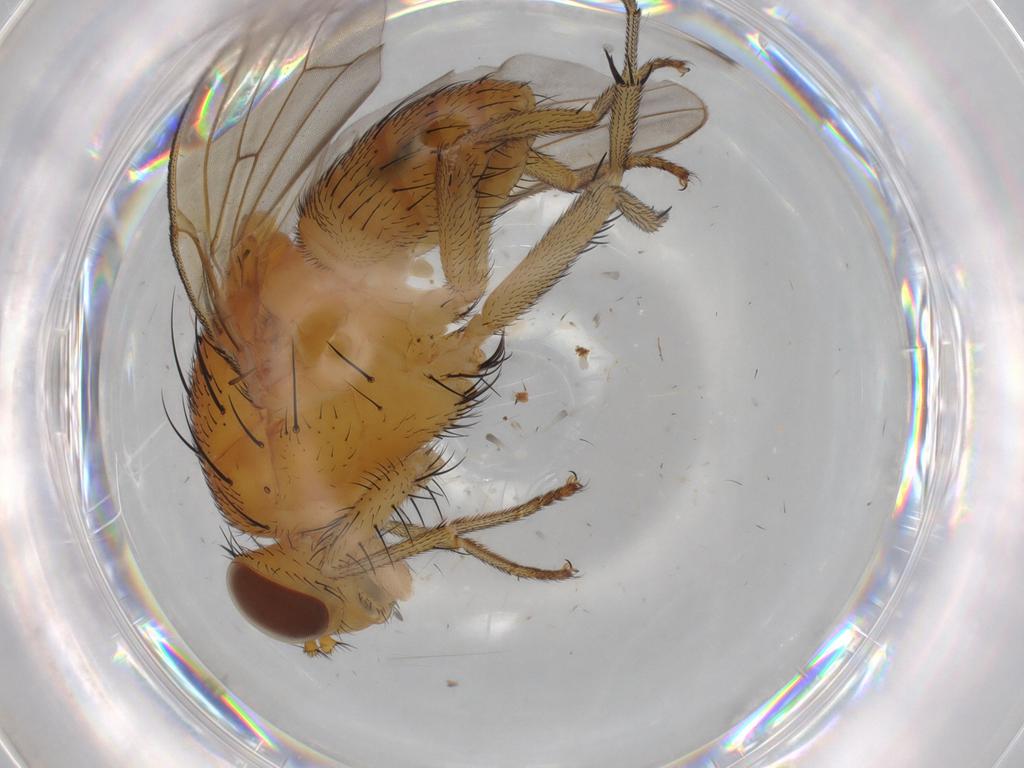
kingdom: Animalia
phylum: Arthropoda
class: Insecta
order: Diptera
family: Lauxaniidae
